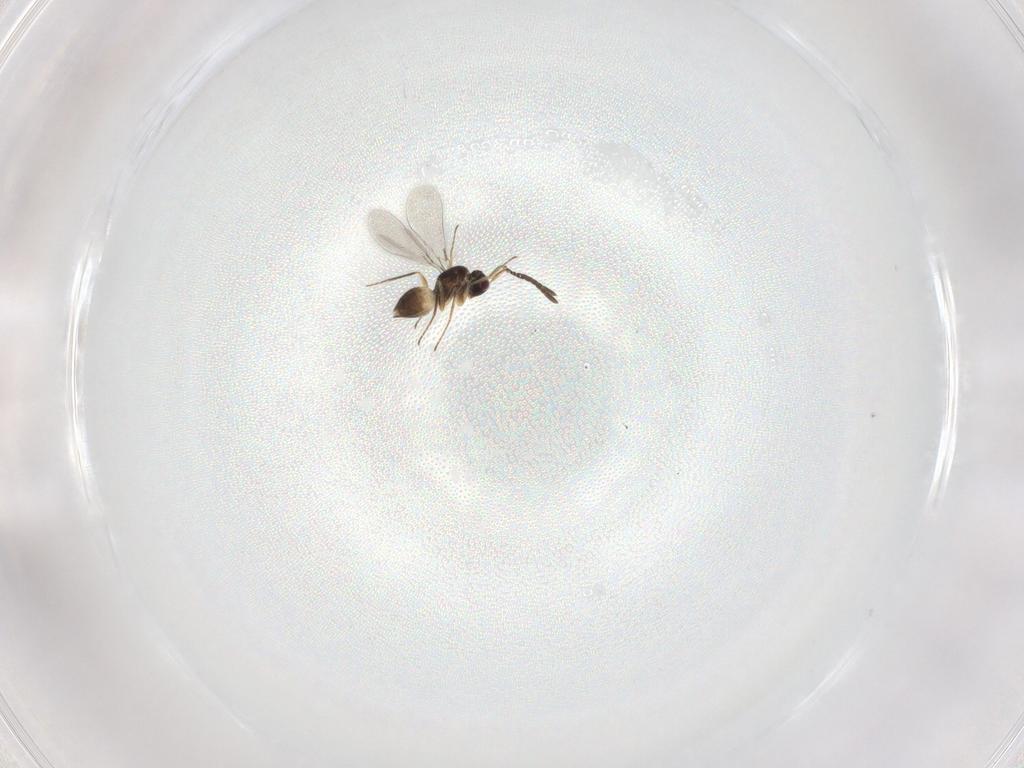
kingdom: Animalia
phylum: Arthropoda
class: Insecta
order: Hymenoptera
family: Mymaridae
